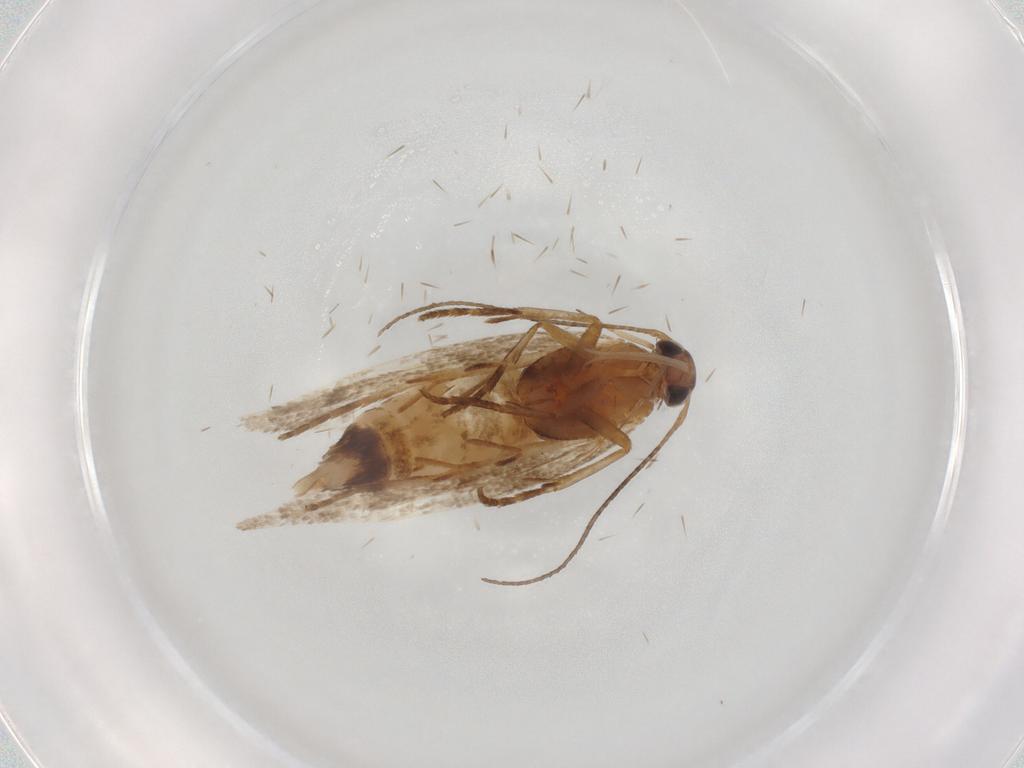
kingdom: Animalia
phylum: Arthropoda
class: Insecta
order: Lepidoptera
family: Gelechiidae
